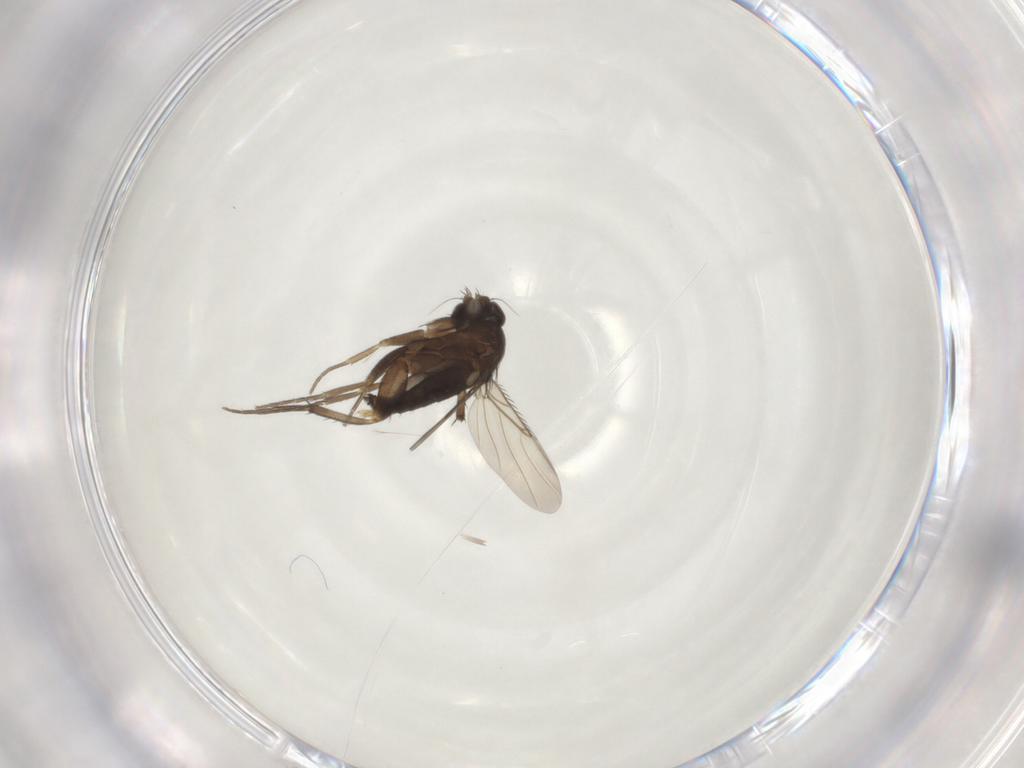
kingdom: Animalia
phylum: Arthropoda
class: Insecta
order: Diptera
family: Phoridae
